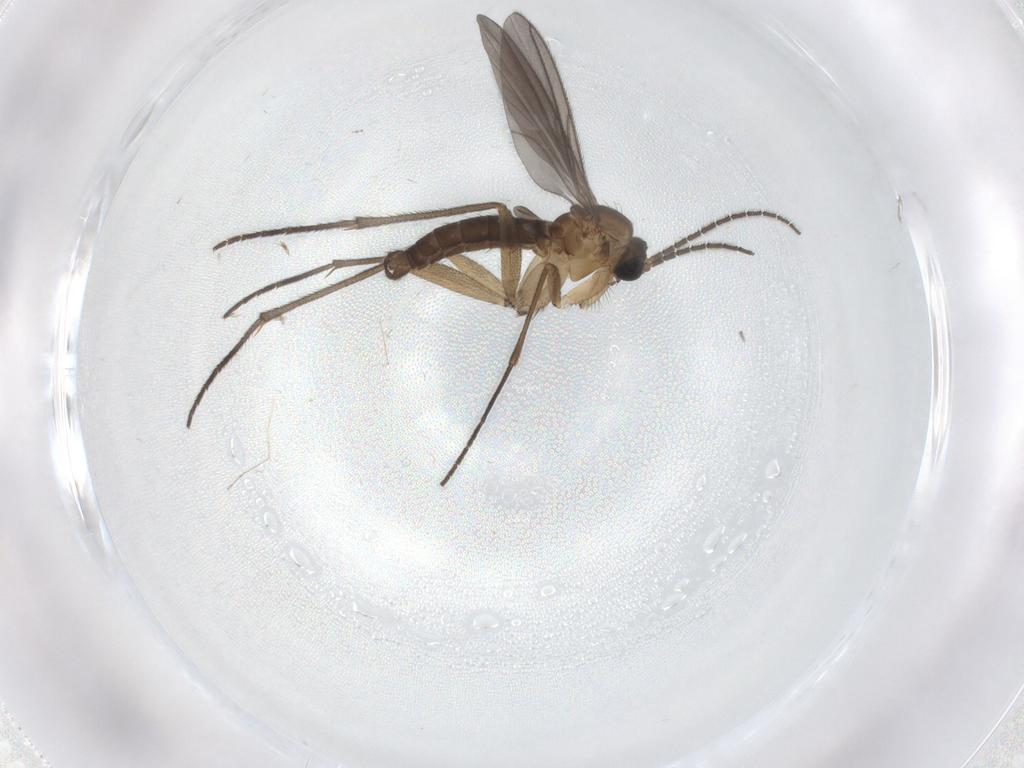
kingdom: Animalia
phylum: Arthropoda
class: Insecta
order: Diptera
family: Sciaridae
